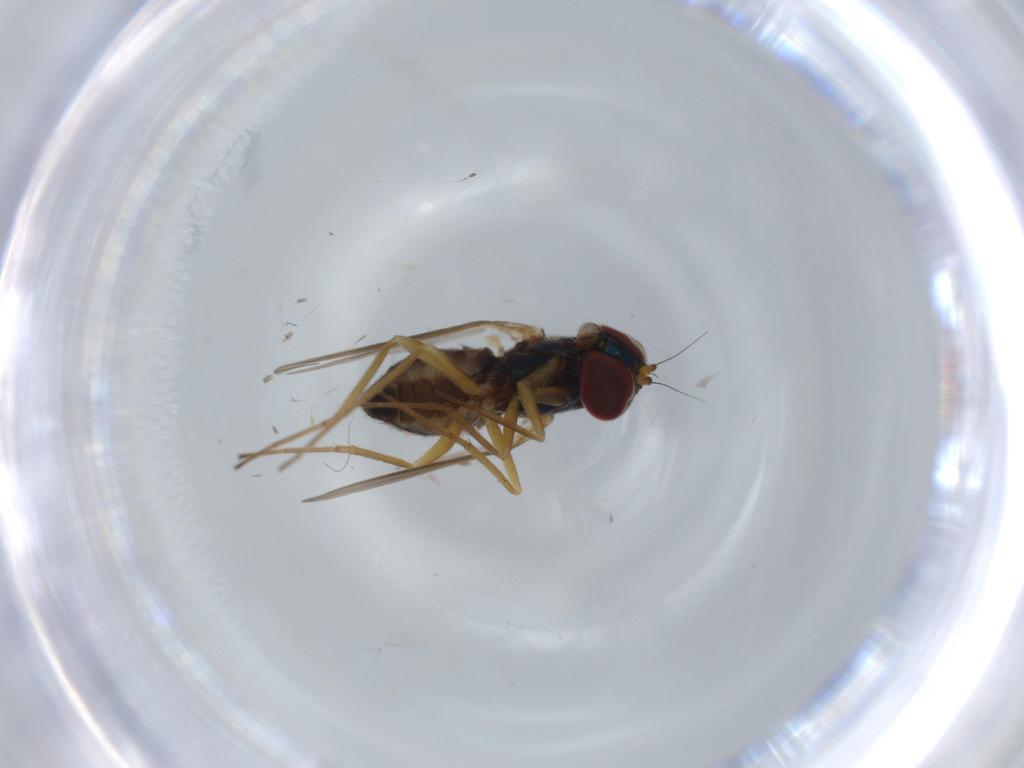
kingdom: Animalia
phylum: Arthropoda
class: Insecta
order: Diptera
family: Dolichopodidae
